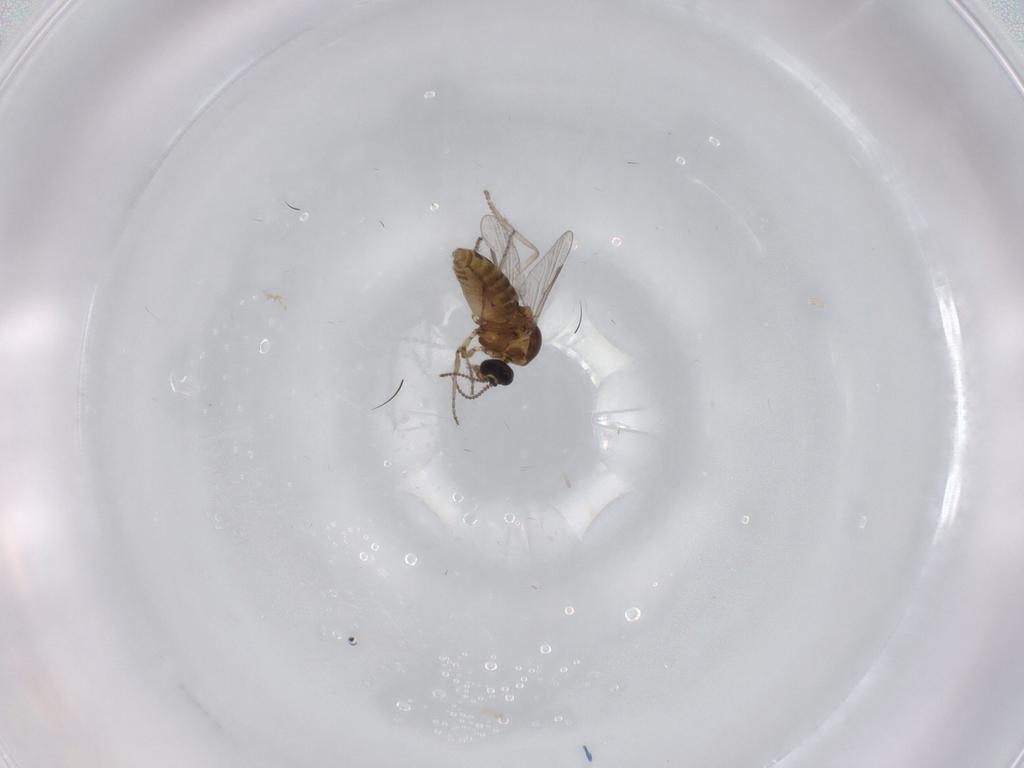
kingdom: Animalia
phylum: Arthropoda
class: Insecta
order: Diptera
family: Ceratopogonidae
